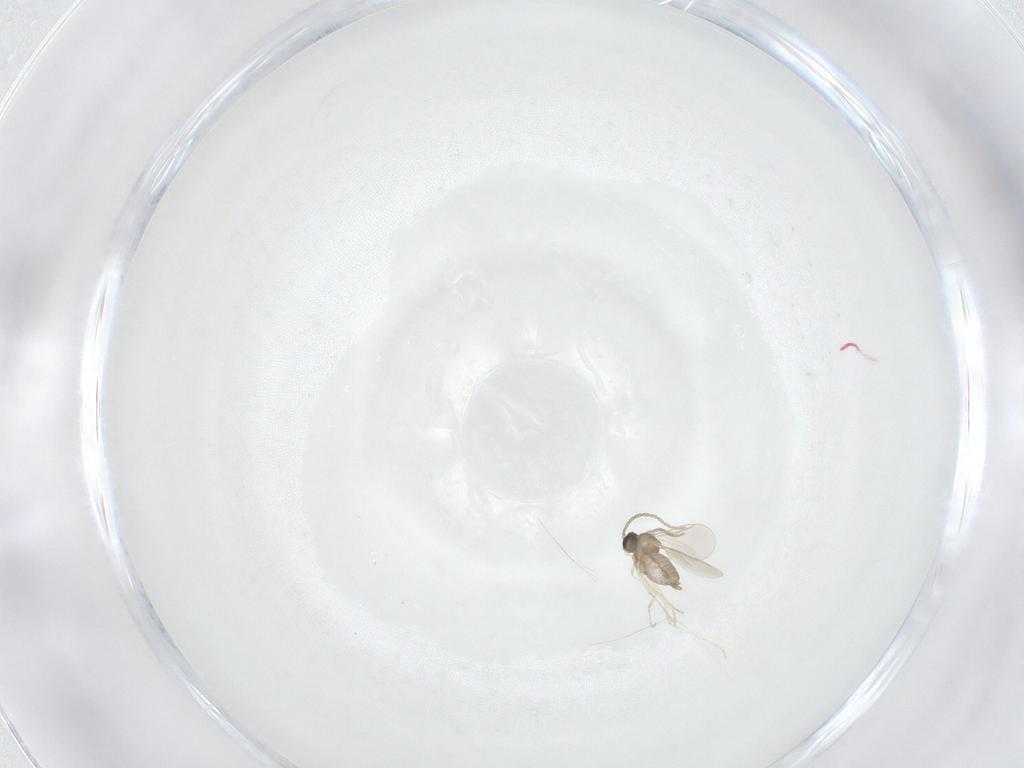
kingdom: Animalia
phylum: Arthropoda
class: Insecta
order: Diptera
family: Cecidomyiidae
